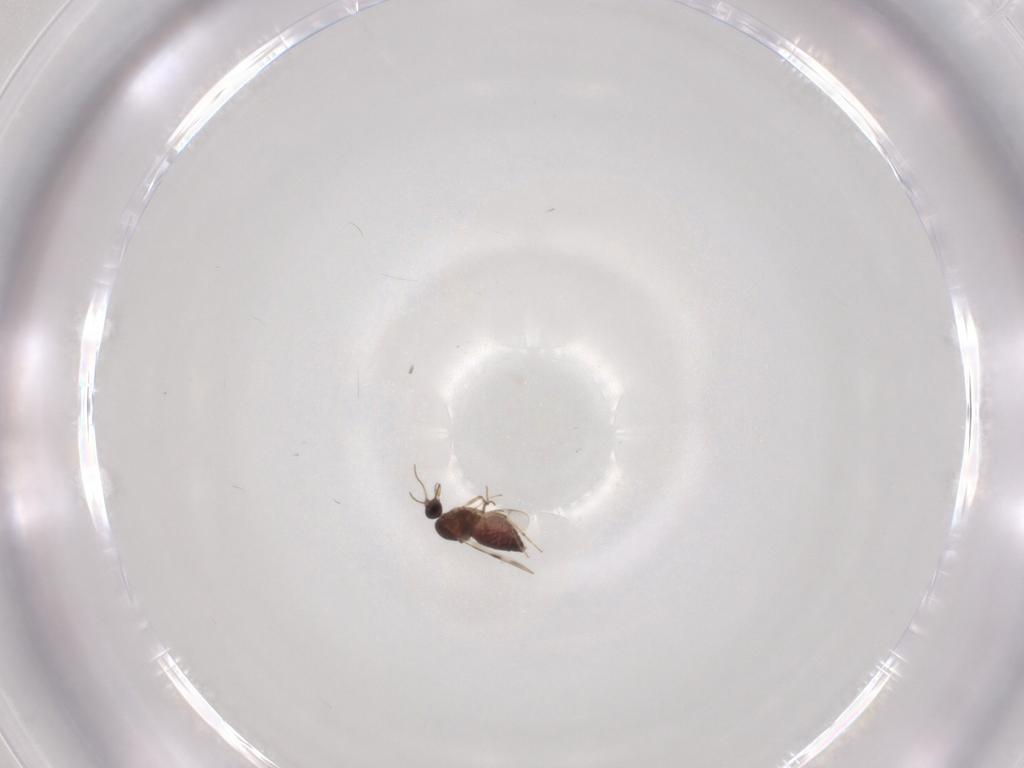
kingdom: Animalia
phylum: Arthropoda
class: Insecta
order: Diptera
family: Ceratopogonidae
